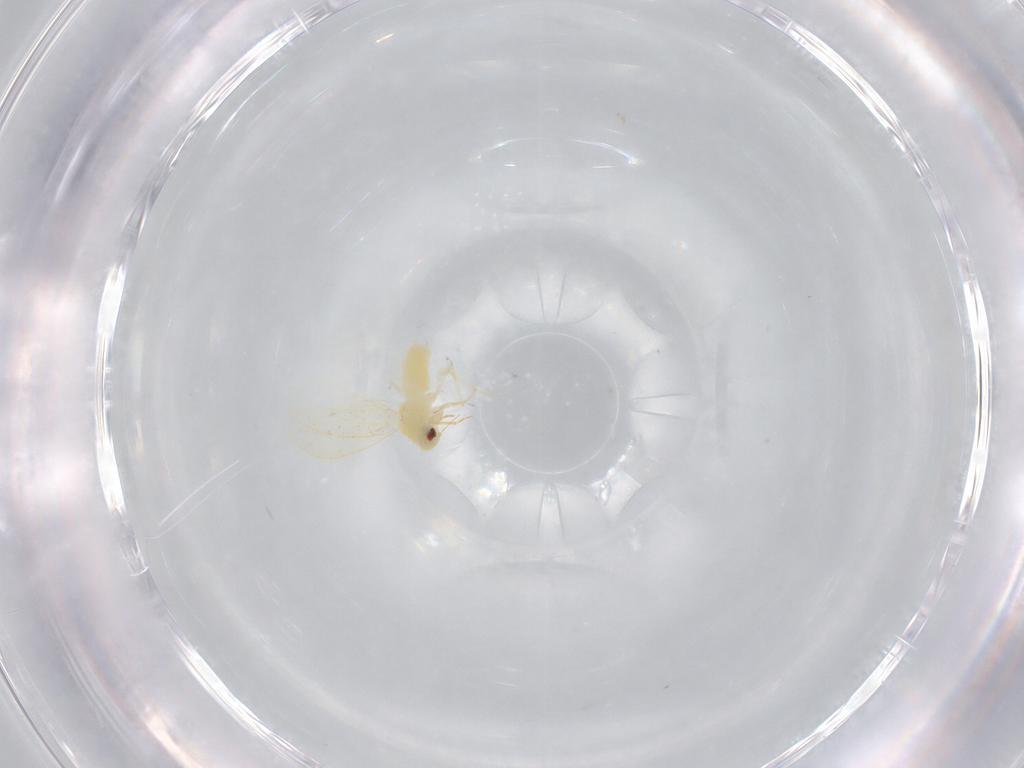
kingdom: Animalia
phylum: Arthropoda
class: Insecta
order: Hemiptera
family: Aleyrodidae
